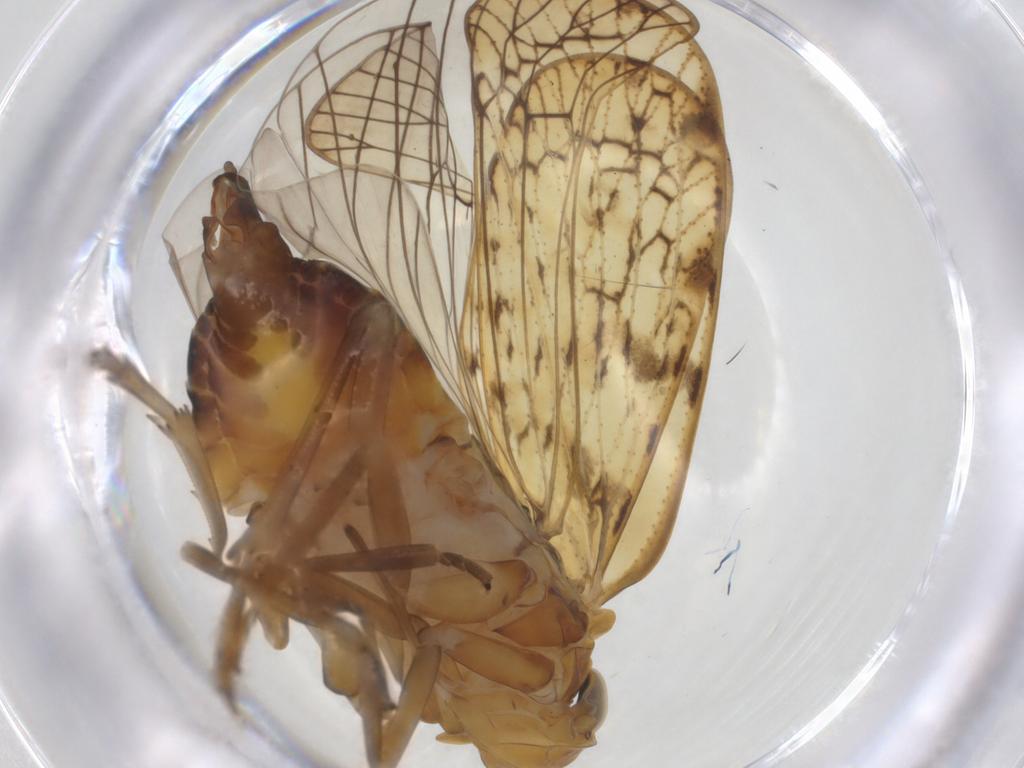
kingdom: Animalia
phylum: Arthropoda
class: Insecta
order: Hemiptera
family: Cixiidae
